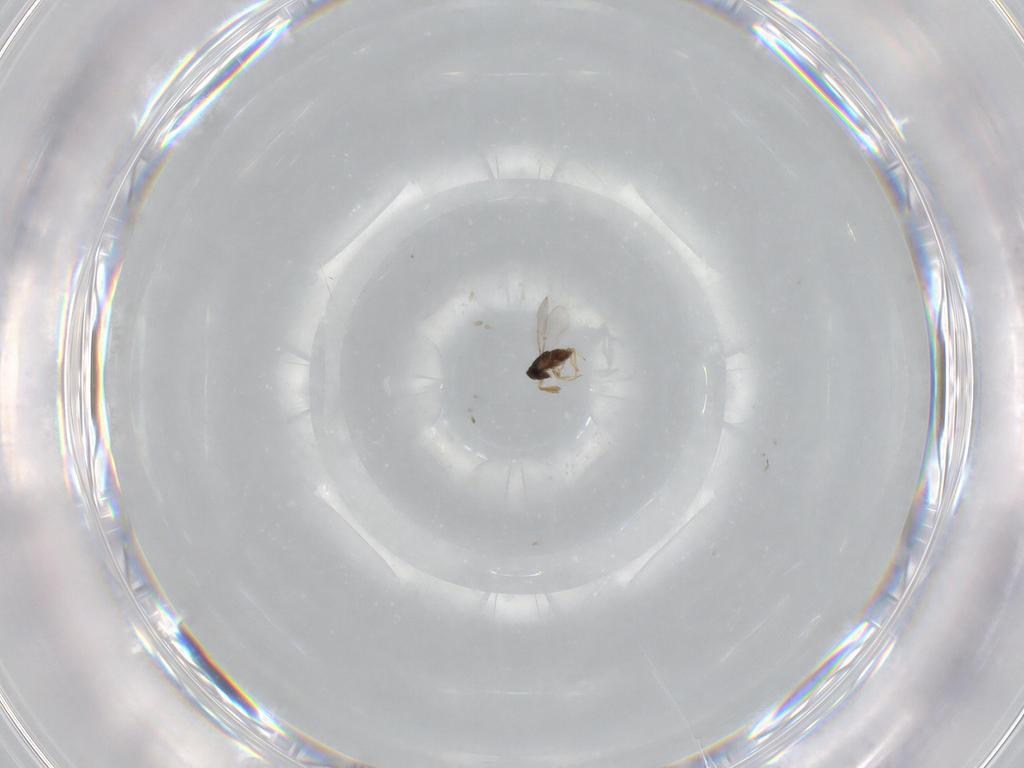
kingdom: Animalia
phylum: Arthropoda
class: Insecta
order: Hymenoptera
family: Encyrtidae
